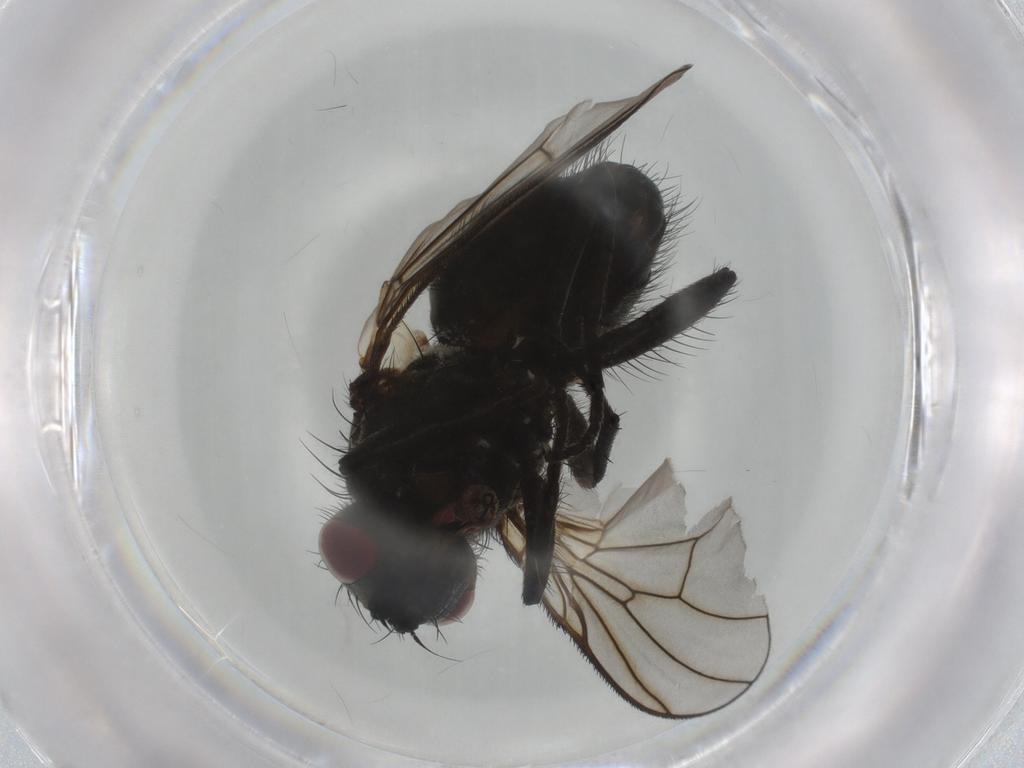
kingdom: Animalia
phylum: Arthropoda
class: Insecta
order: Diptera
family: Muscidae
